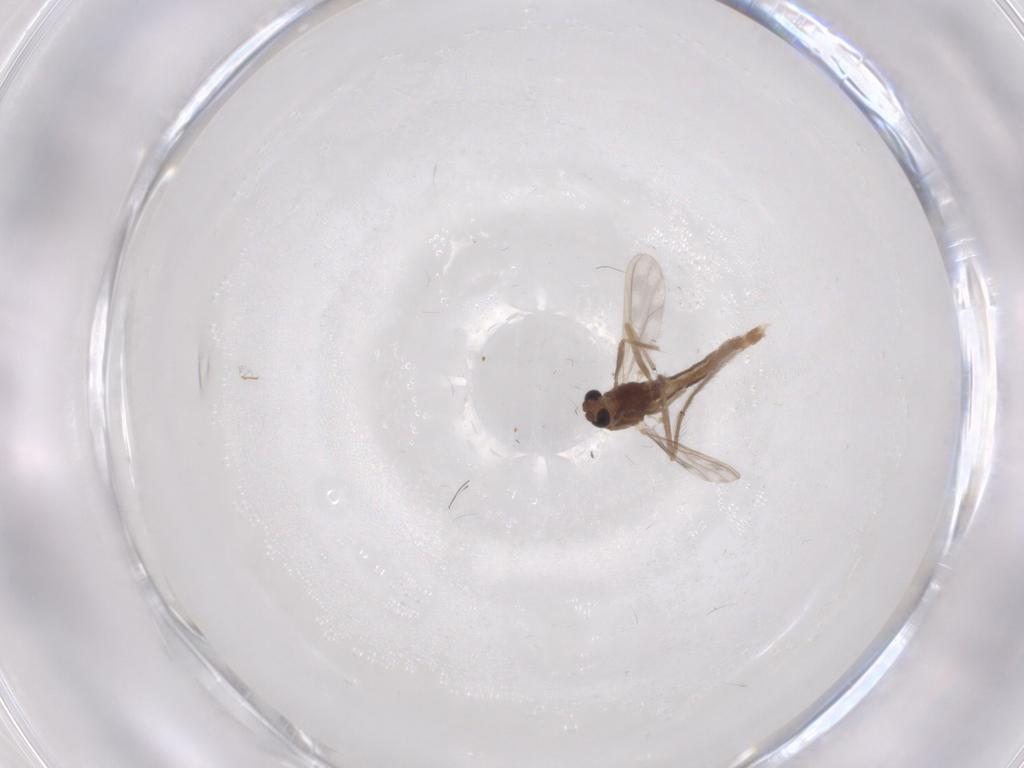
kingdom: Animalia
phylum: Arthropoda
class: Insecta
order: Diptera
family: Chironomidae
